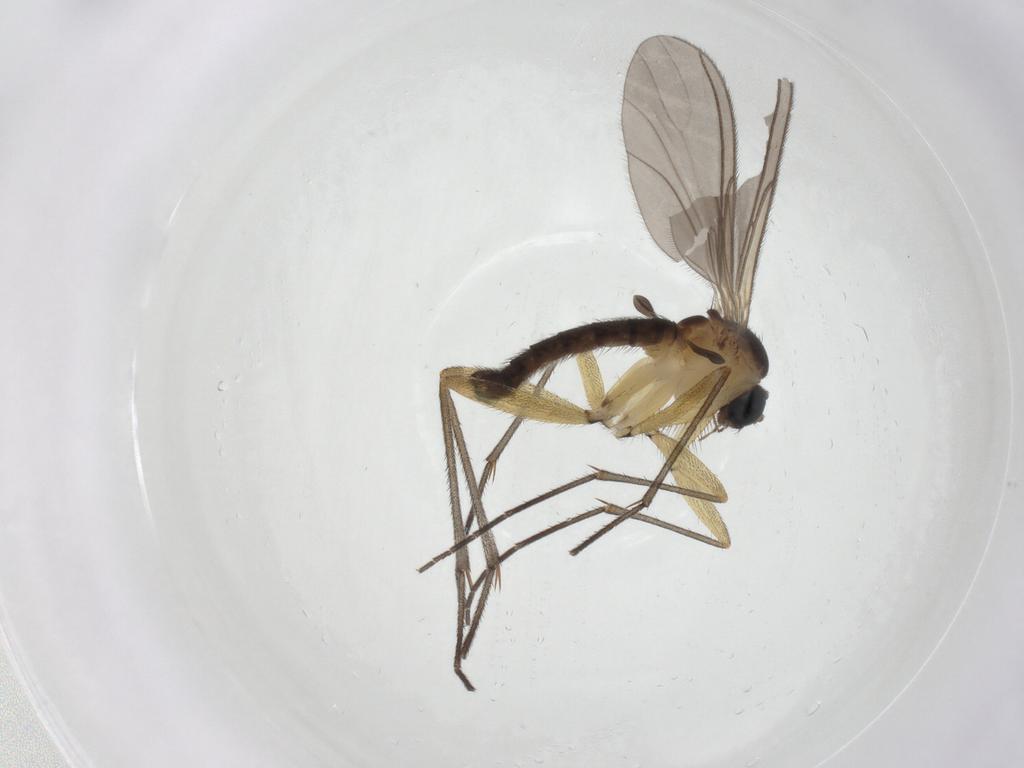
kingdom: Animalia
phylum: Arthropoda
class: Insecta
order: Diptera
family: Sciaridae
